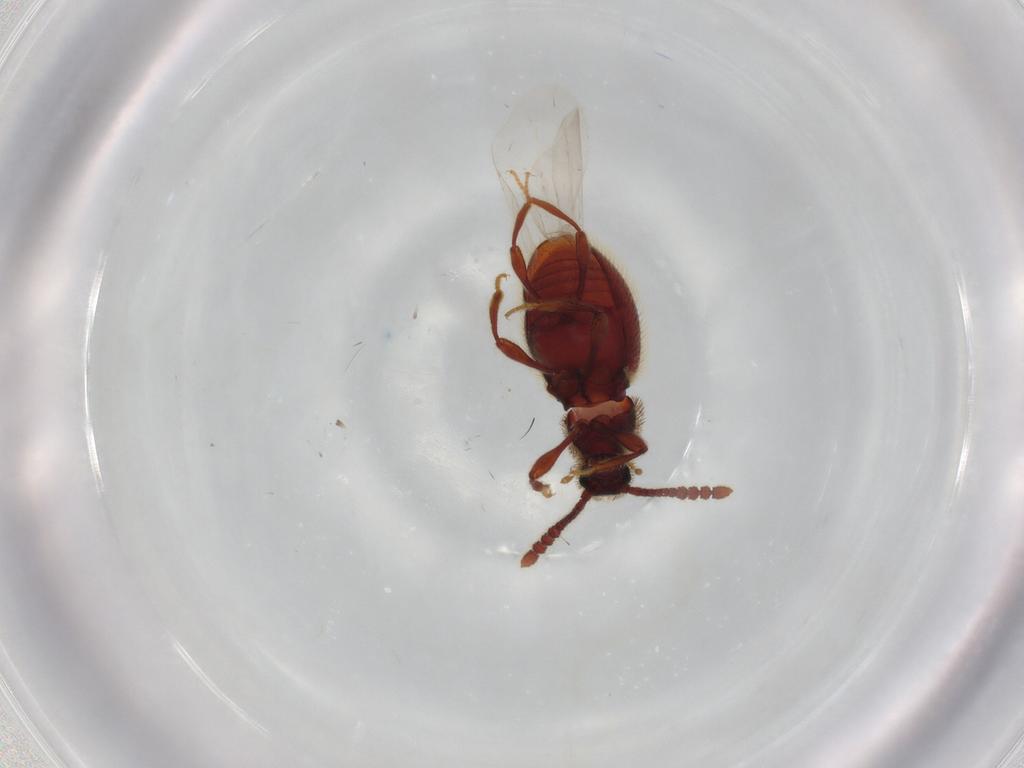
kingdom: Animalia
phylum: Arthropoda
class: Insecta
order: Coleoptera
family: Staphylinidae
